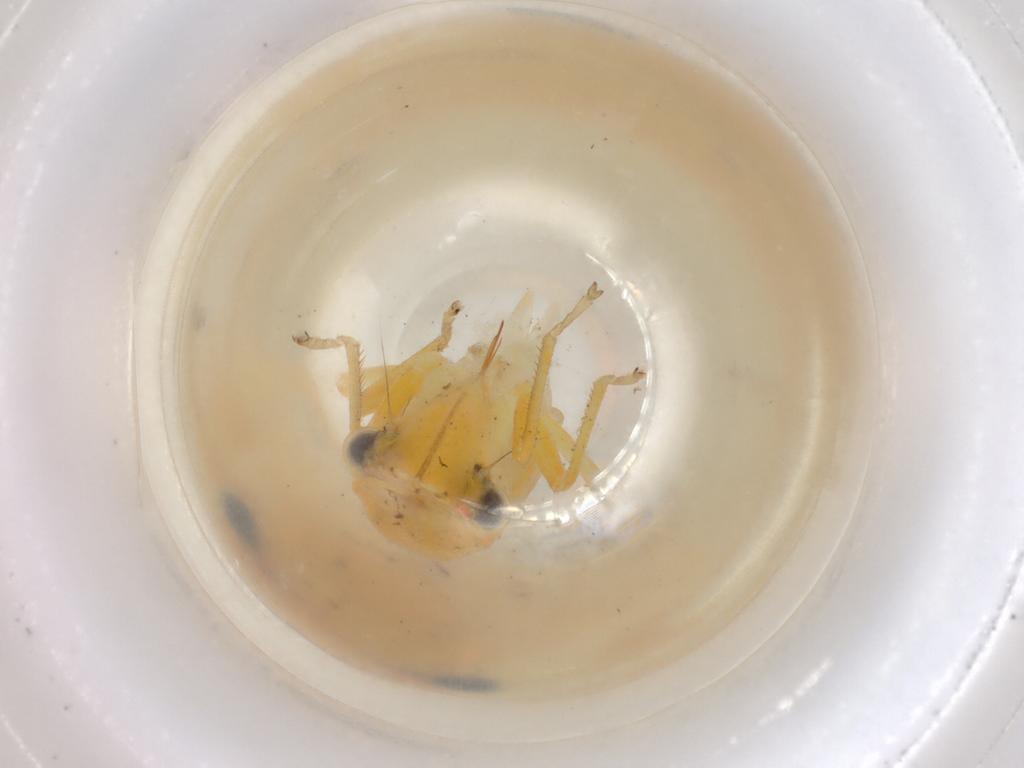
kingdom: Animalia
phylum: Arthropoda
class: Insecta
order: Hemiptera
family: Cicadellidae
